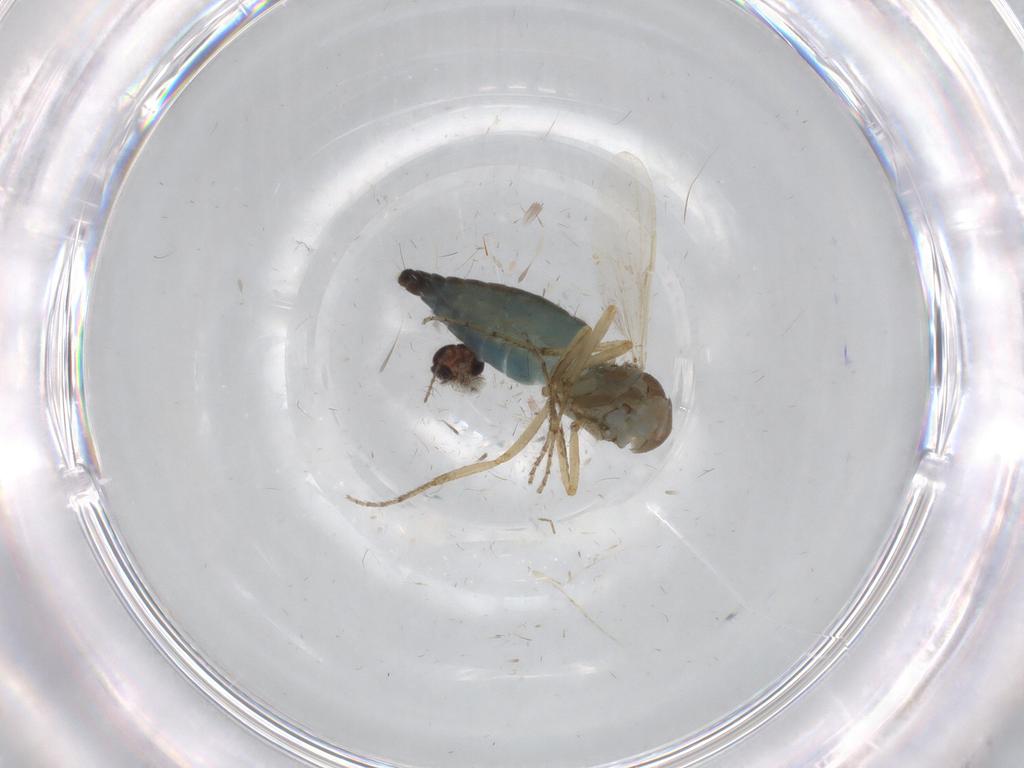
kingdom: Animalia
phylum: Arthropoda
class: Insecta
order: Diptera
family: Ceratopogonidae
